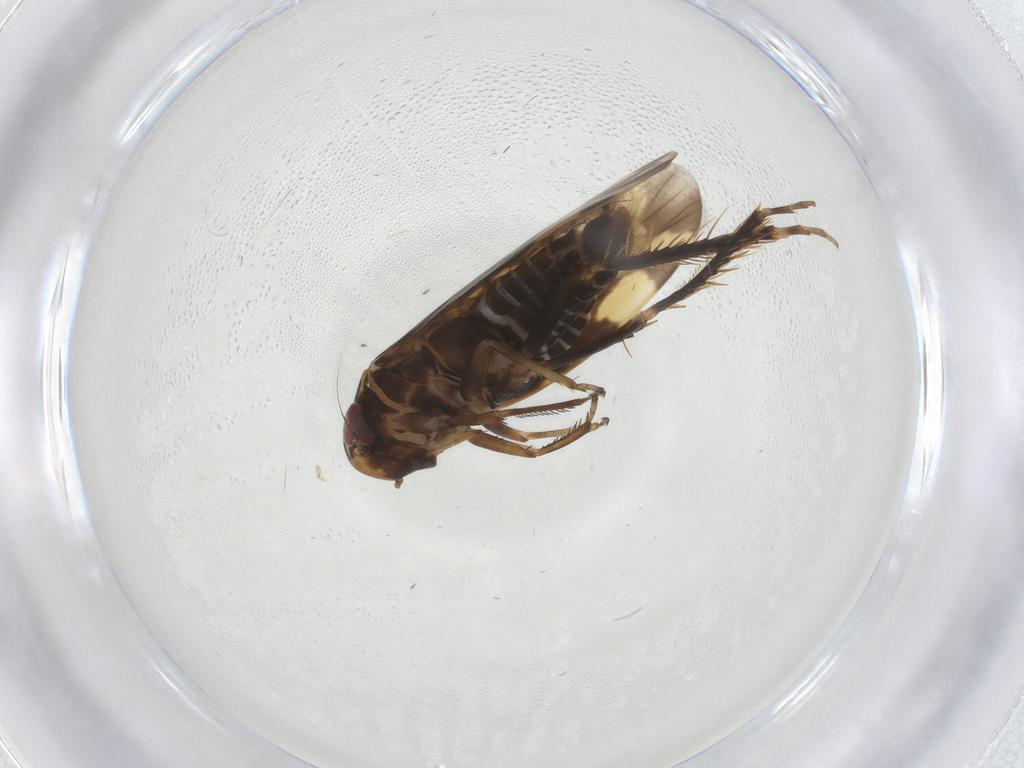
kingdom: Animalia
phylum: Arthropoda
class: Insecta
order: Hemiptera
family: Cicadellidae
